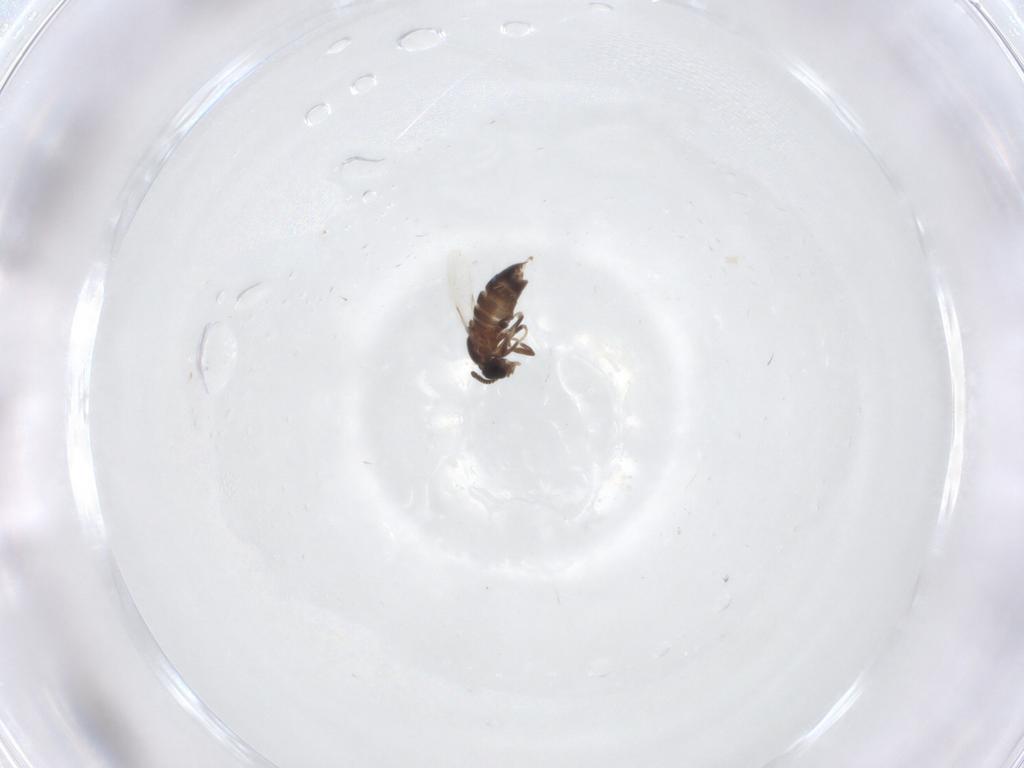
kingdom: Animalia
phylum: Arthropoda
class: Insecta
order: Diptera
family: Scatopsidae
